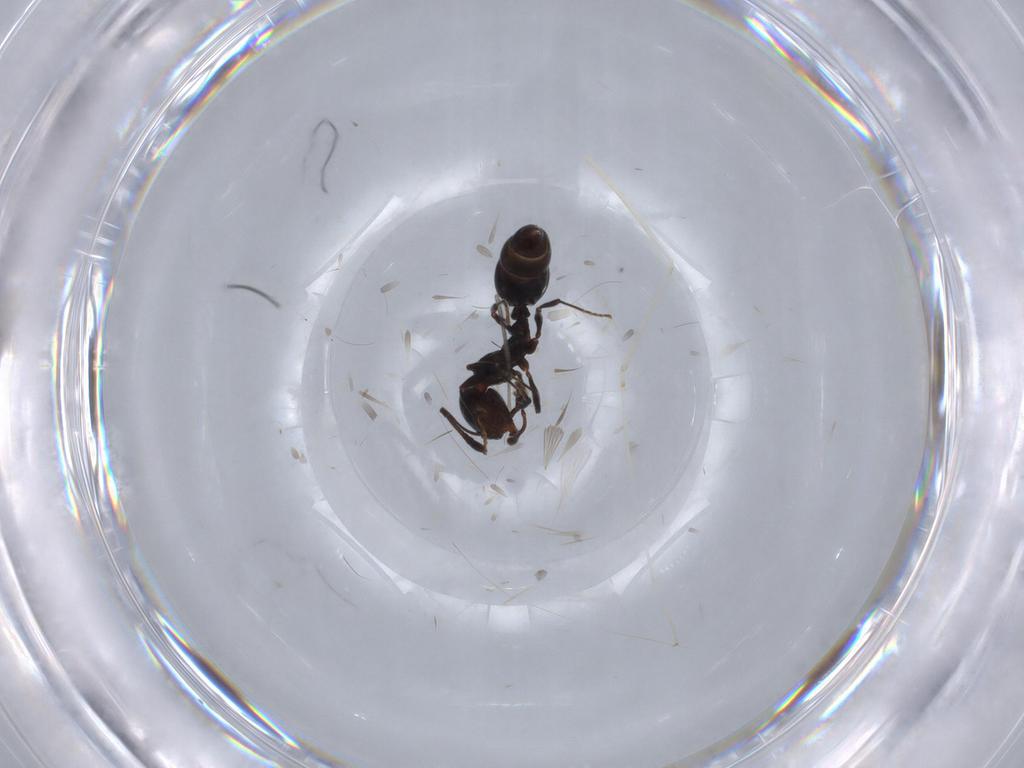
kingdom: Animalia
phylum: Arthropoda
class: Insecta
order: Hymenoptera
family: Formicidae
